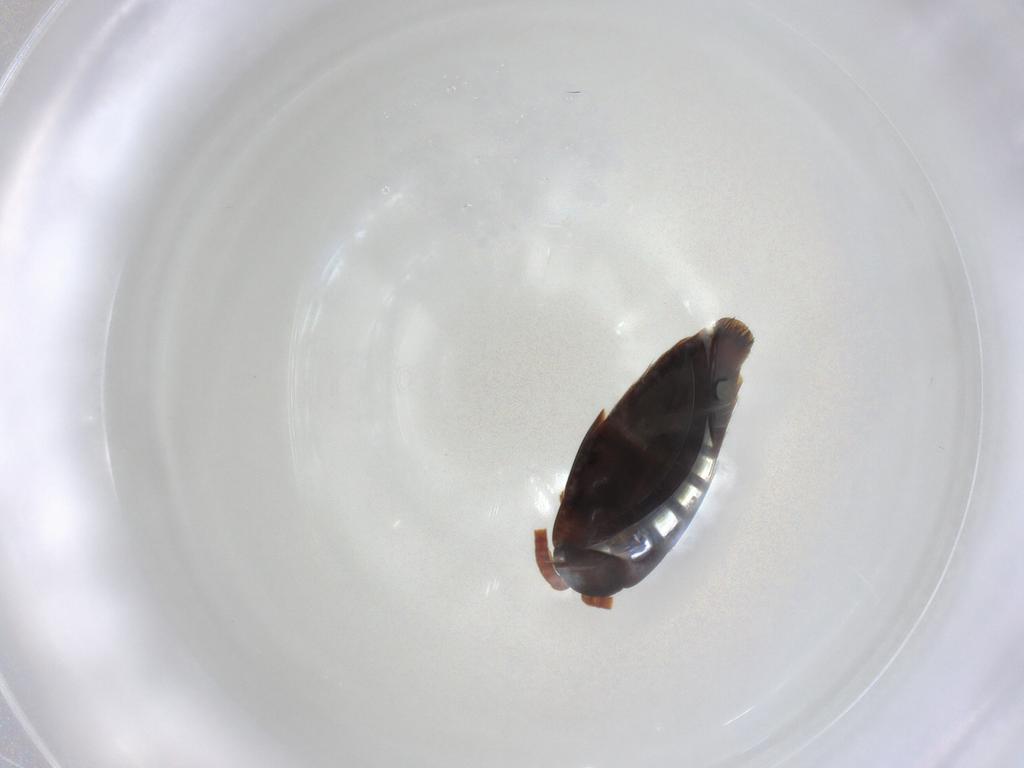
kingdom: Animalia
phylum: Arthropoda
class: Insecta
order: Coleoptera
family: Staphylinidae
